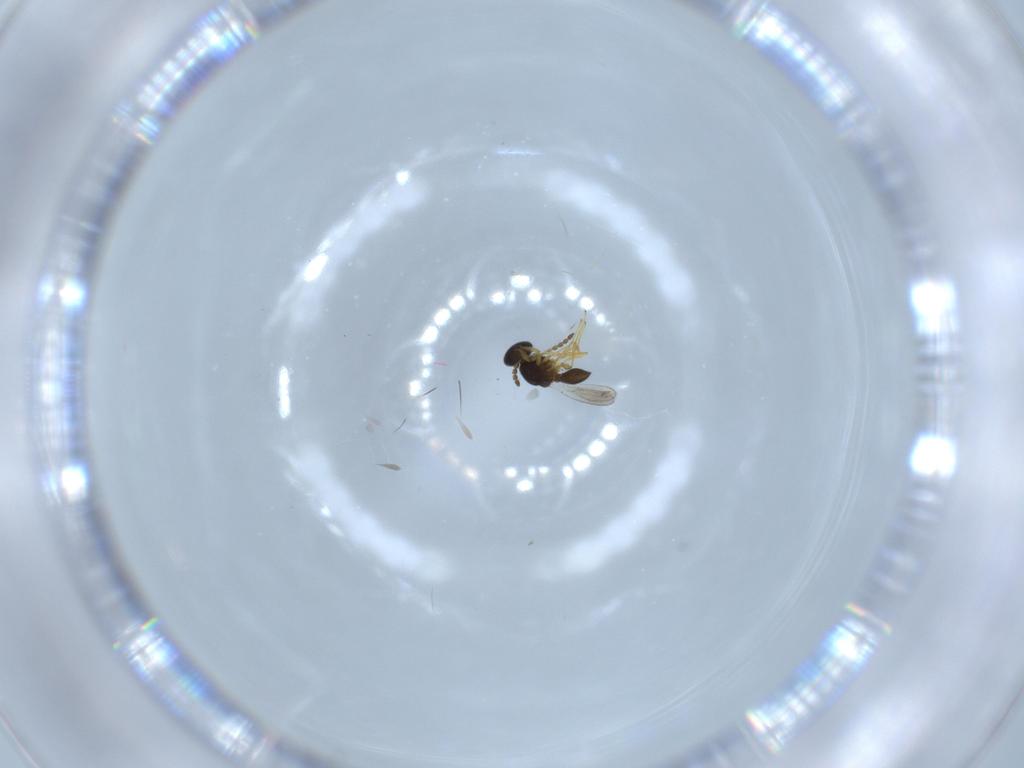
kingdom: Animalia
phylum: Arthropoda
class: Insecta
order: Hymenoptera
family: Platygastridae
